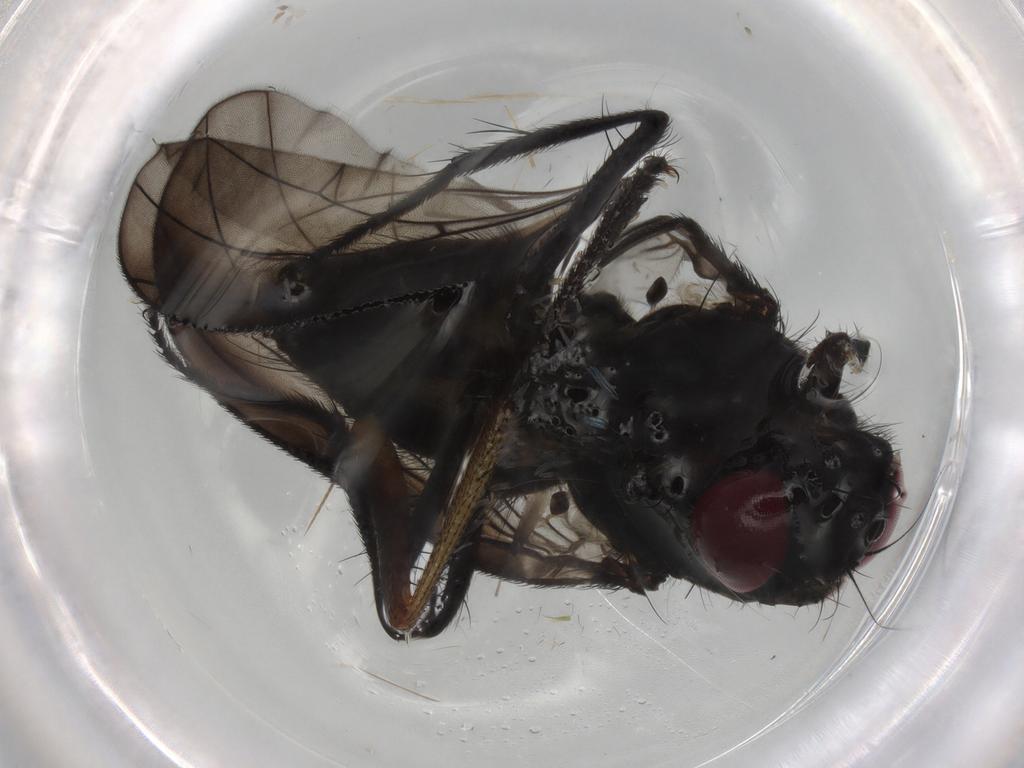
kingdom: Animalia
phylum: Arthropoda
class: Insecta
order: Diptera
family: Fannia
